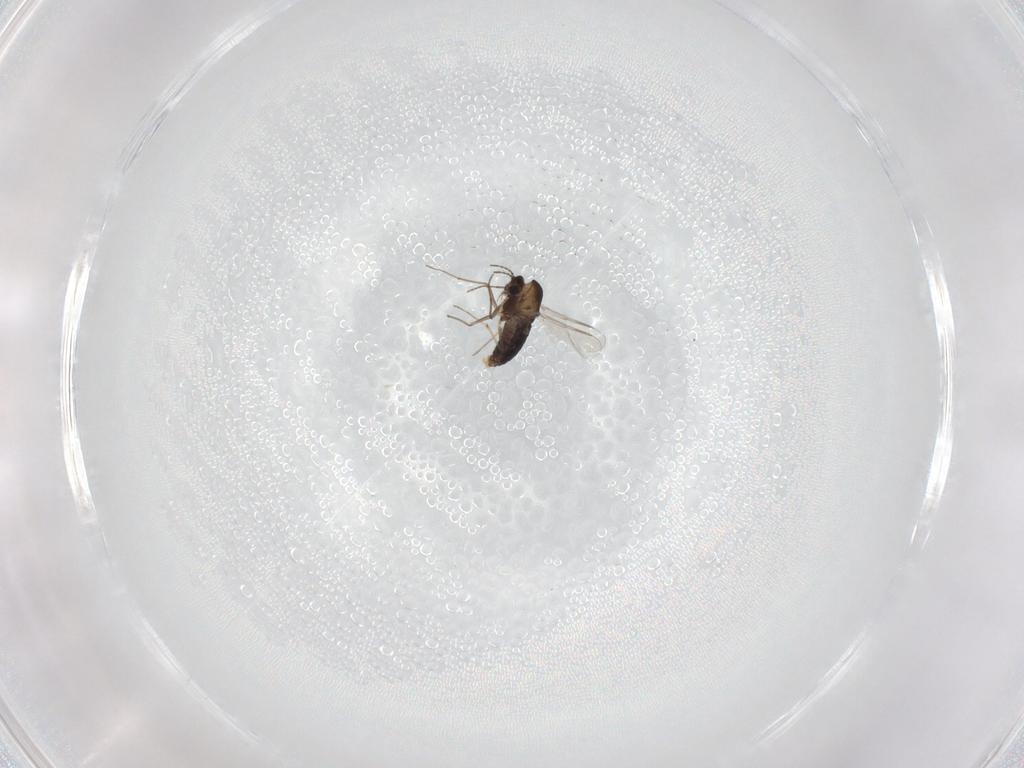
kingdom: Animalia
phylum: Arthropoda
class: Insecta
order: Diptera
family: Chironomidae
